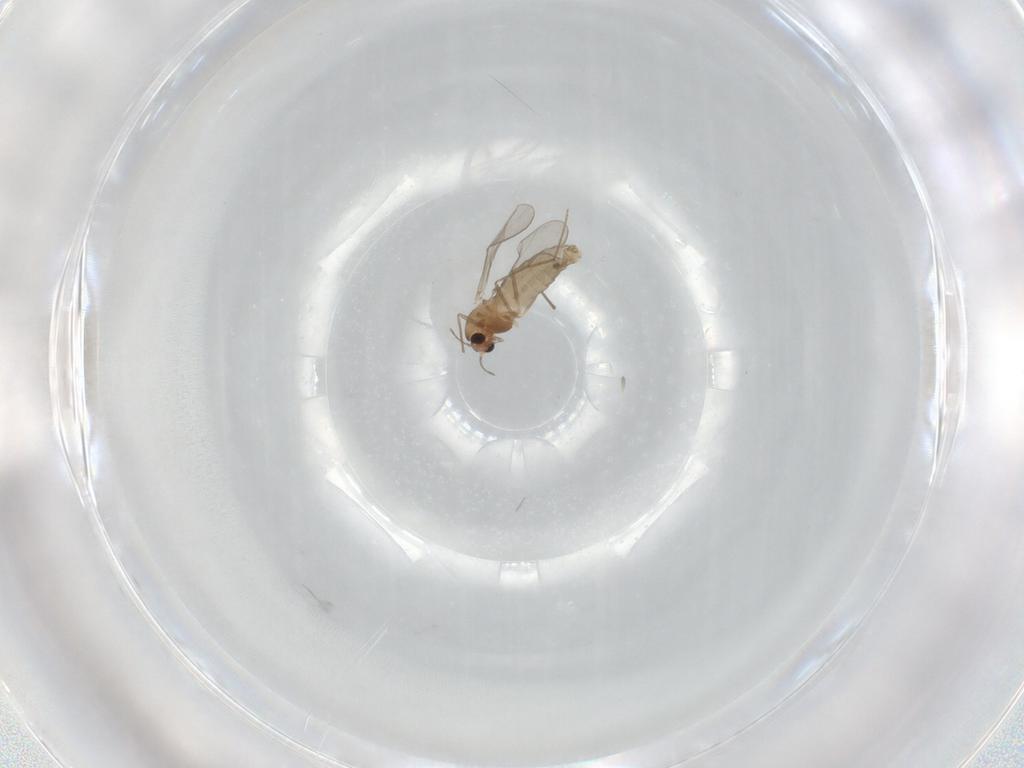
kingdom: Animalia
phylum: Arthropoda
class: Insecta
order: Diptera
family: Chironomidae
